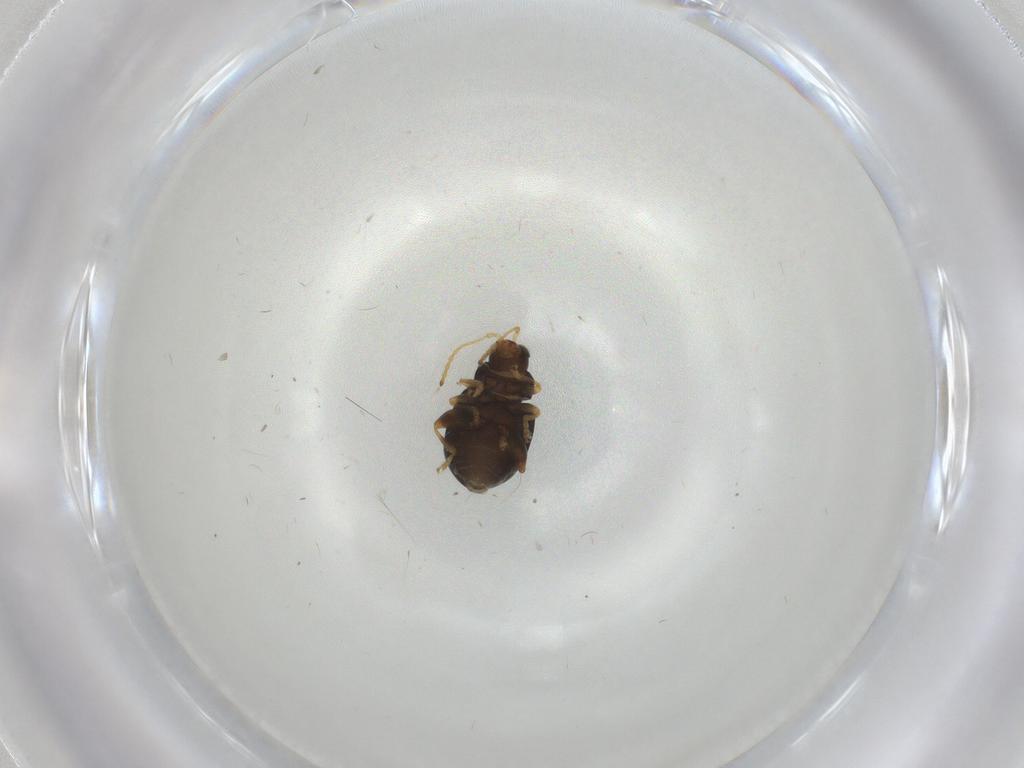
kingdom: Animalia
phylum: Arthropoda
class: Insecta
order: Coleoptera
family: Chrysomelidae
